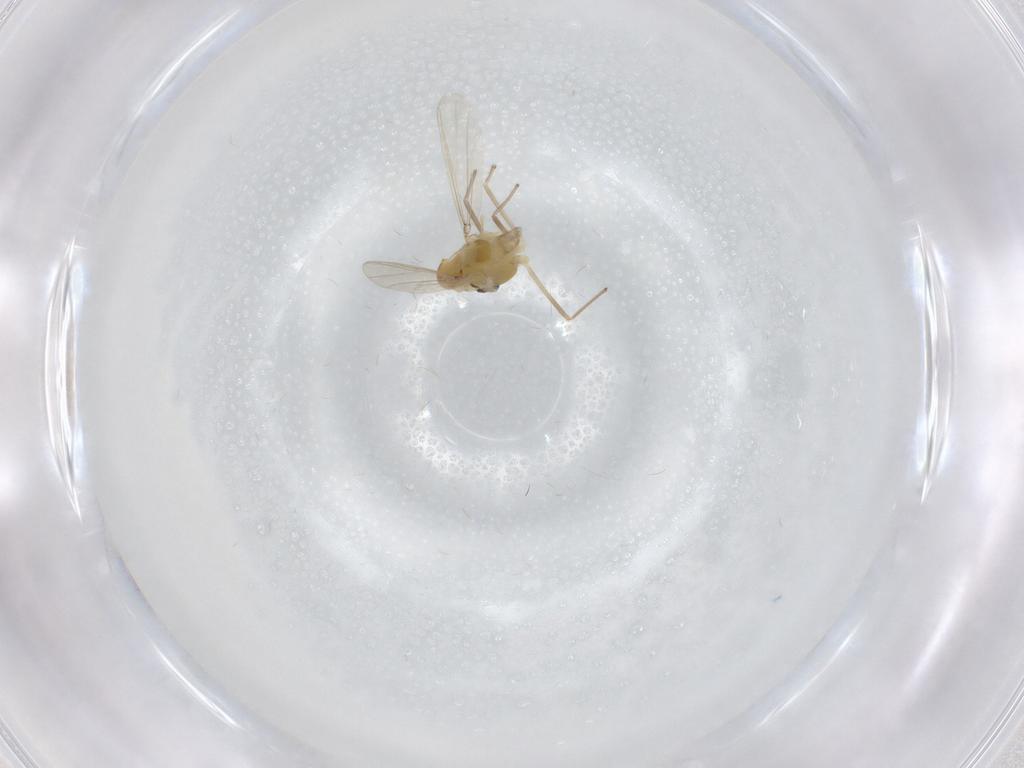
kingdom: Animalia
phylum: Arthropoda
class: Insecta
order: Diptera
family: Chironomidae
